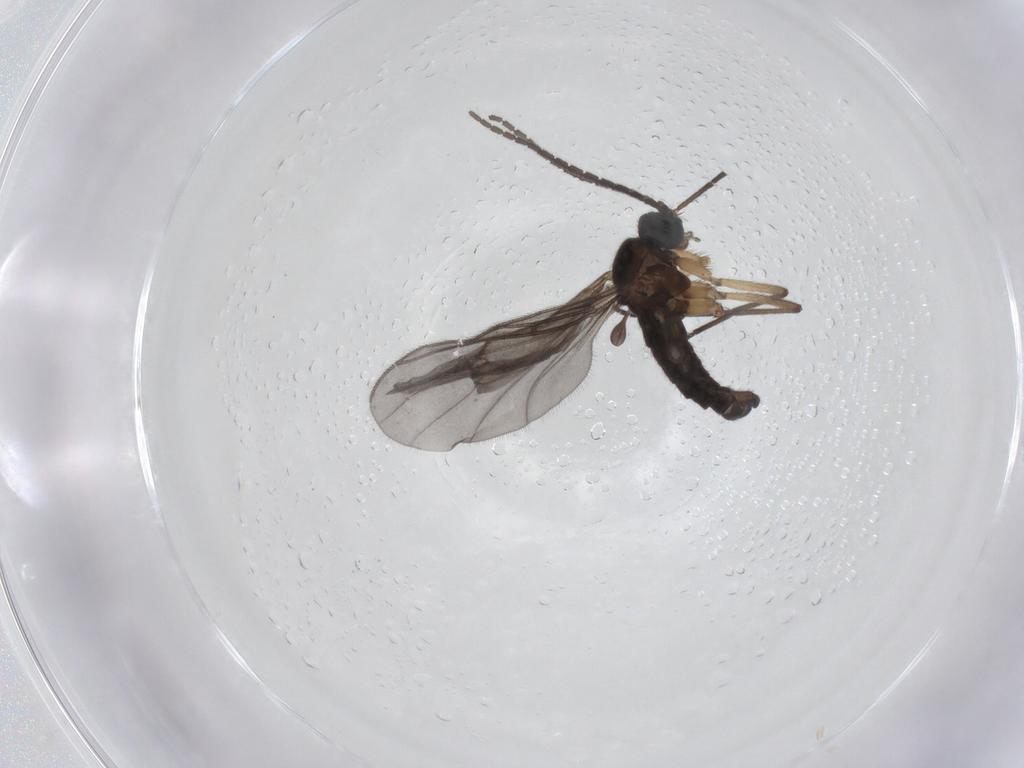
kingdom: Animalia
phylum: Arthropoda
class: Insecta
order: Diptera
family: Sciaridae
